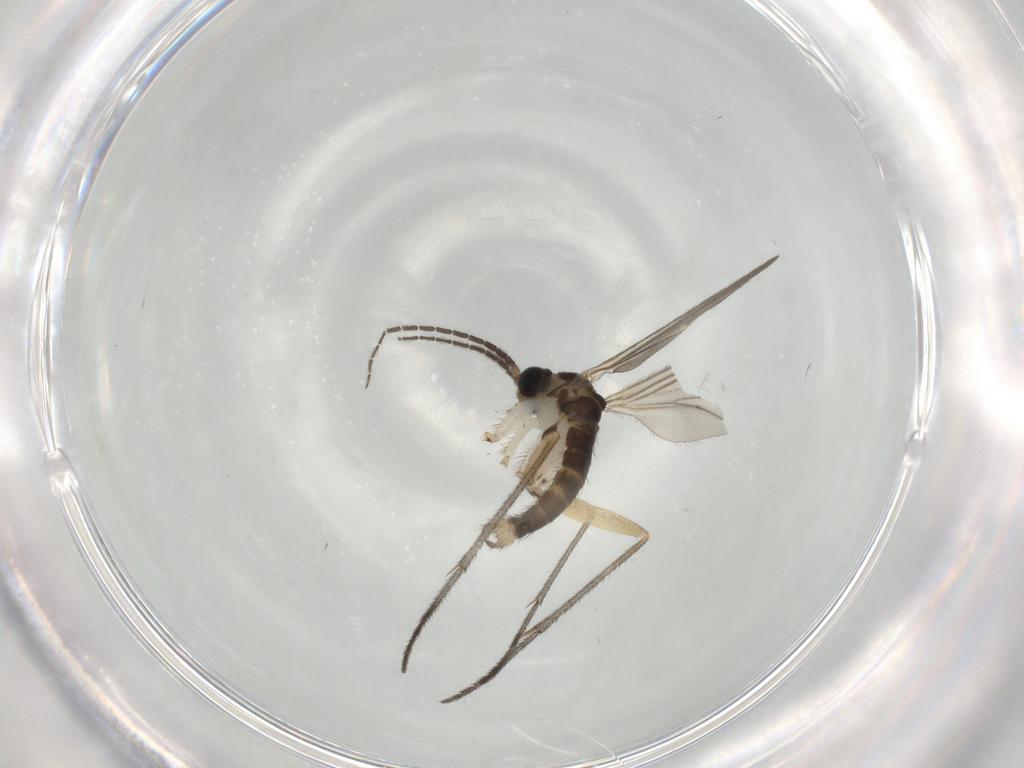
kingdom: Animalia
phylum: Arthropoda
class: Insecta
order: Diptera
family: Sciaridae
